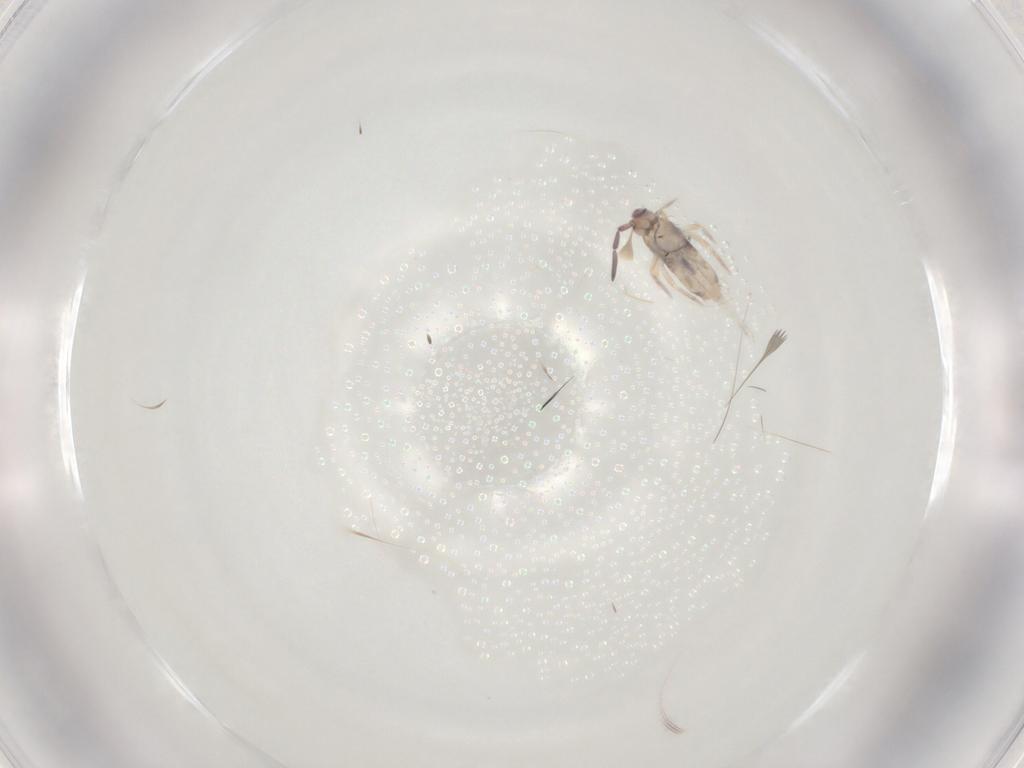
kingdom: Animalia
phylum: Arthropoda
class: Collembola
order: Entomobryomorpha
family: Entomobryidae
